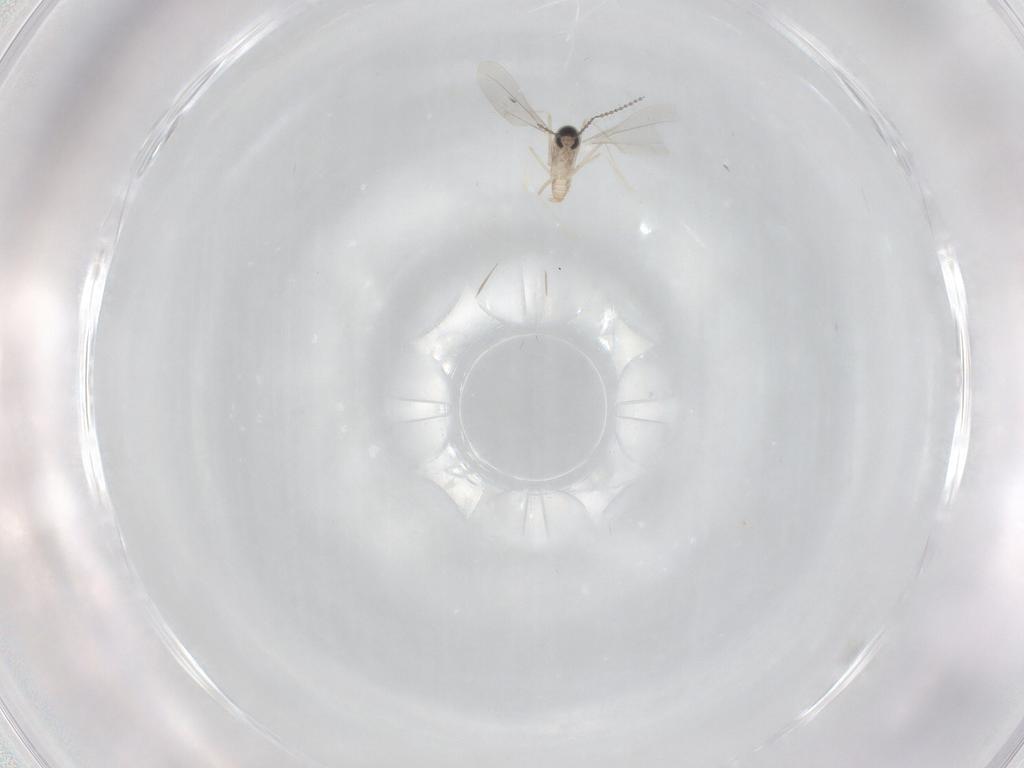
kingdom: Animalia
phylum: Arthropoda
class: Insecta
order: Diptera
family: Cecidomyiidae
